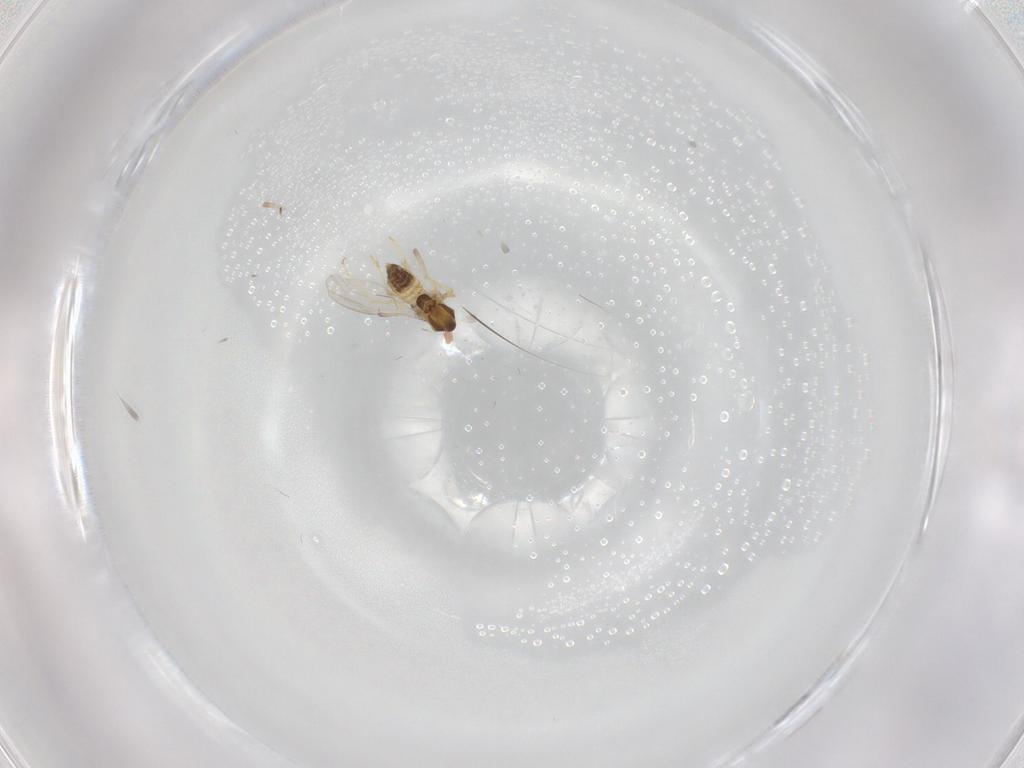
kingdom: Animalia
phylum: Arthropoda
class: Insecta
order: Diptera
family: Chironomidae
